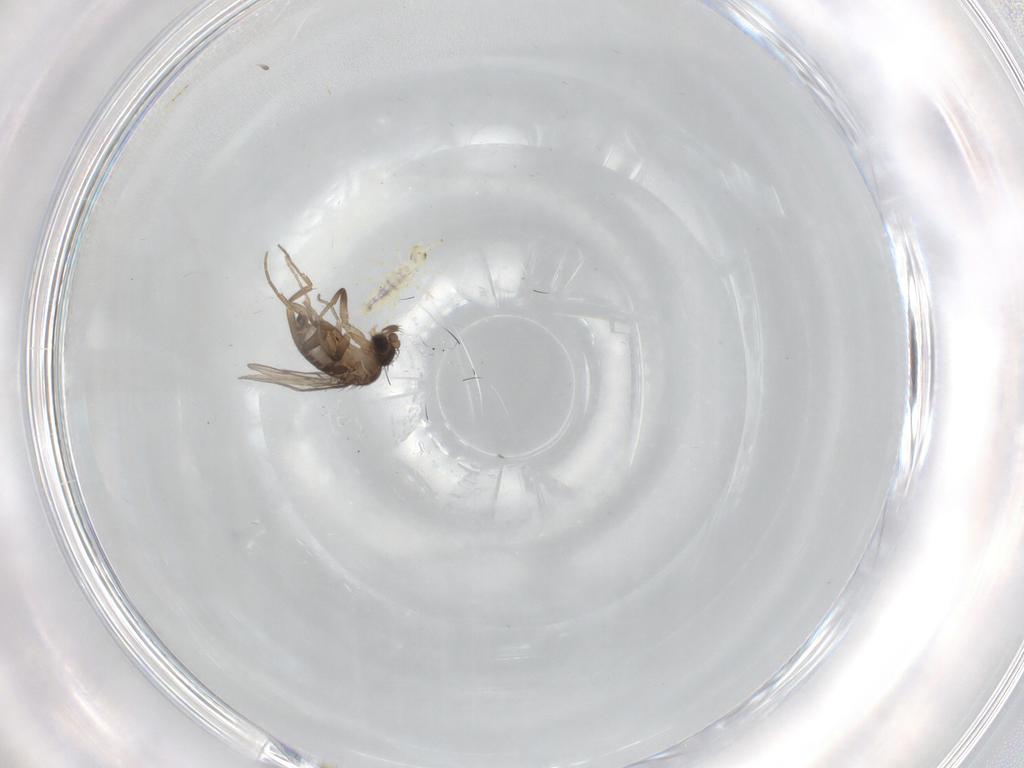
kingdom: Animalia
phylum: Arthropoda
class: Insecta
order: Diptera
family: Phoridae
